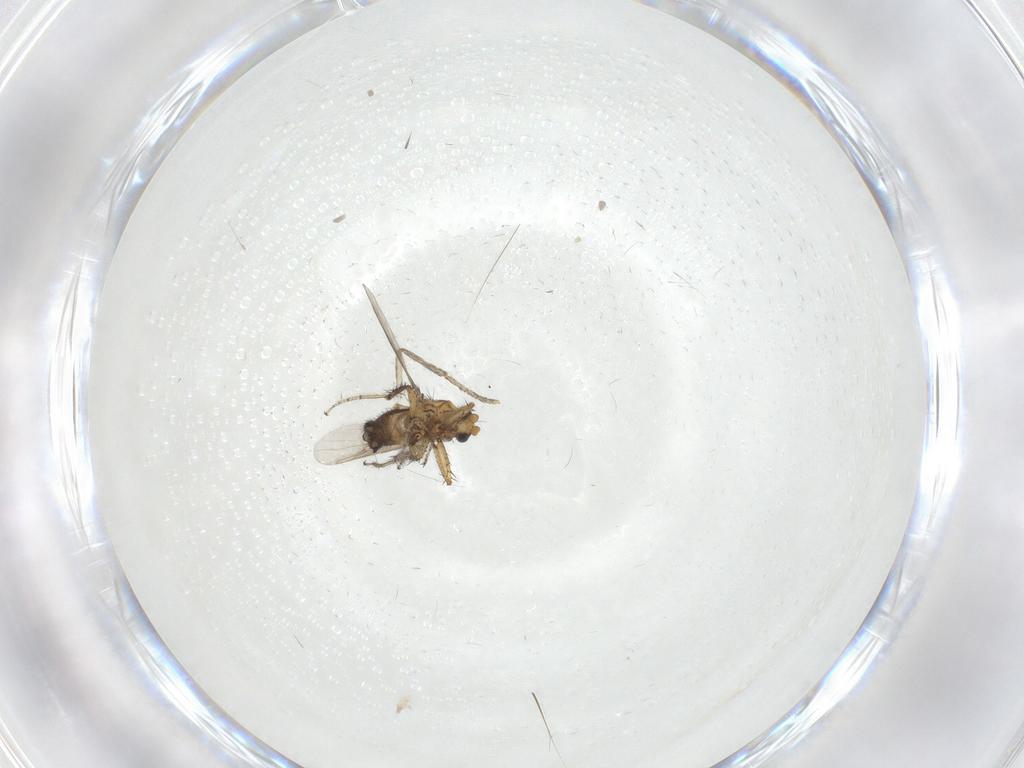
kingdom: Animalia
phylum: Arthropoda
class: Insecta
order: Diptera
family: Ceratopogonidae
